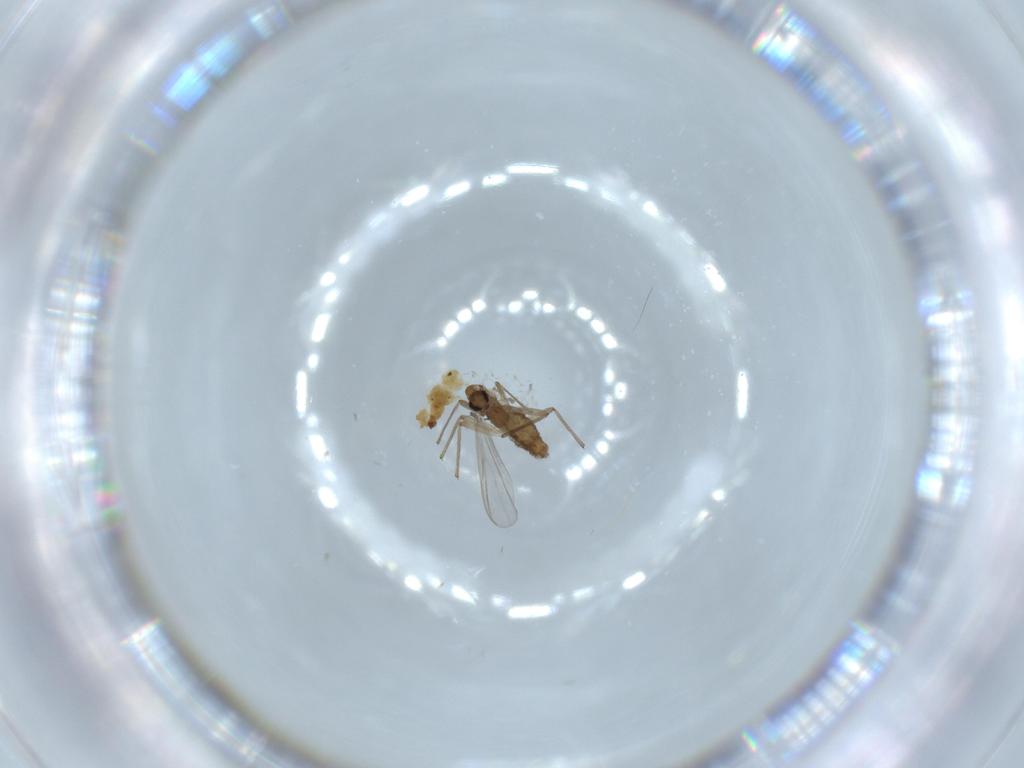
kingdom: Animalia
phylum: Arthropoda
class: Insecta
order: Diptera
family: Chironomidae
